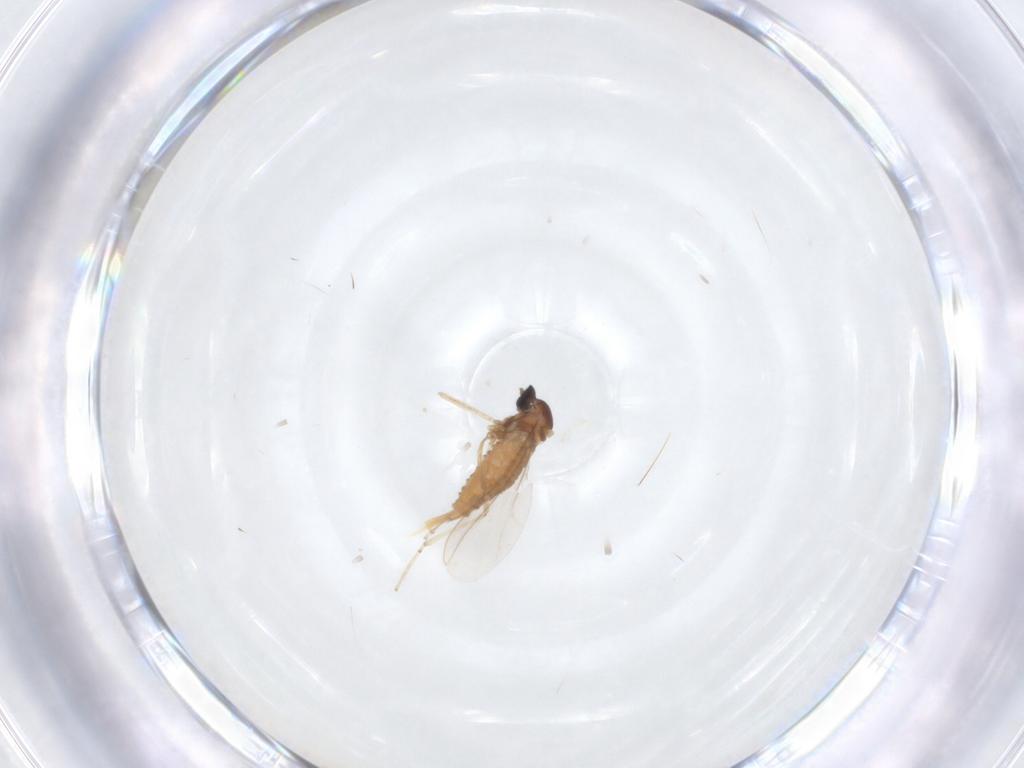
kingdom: Animalia
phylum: Arthropoda
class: Insecta
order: Diptera
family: Cecidomyiidae
